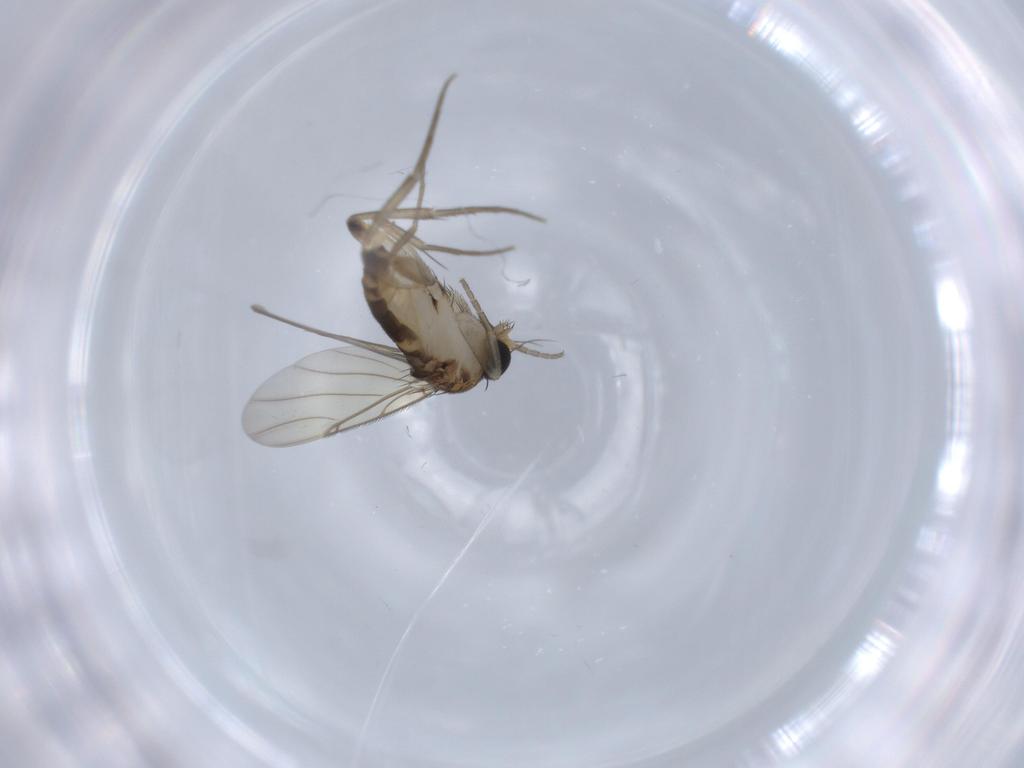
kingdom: Animalia
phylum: Arthropoda
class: Insecta
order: Diptera
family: Phoridae
